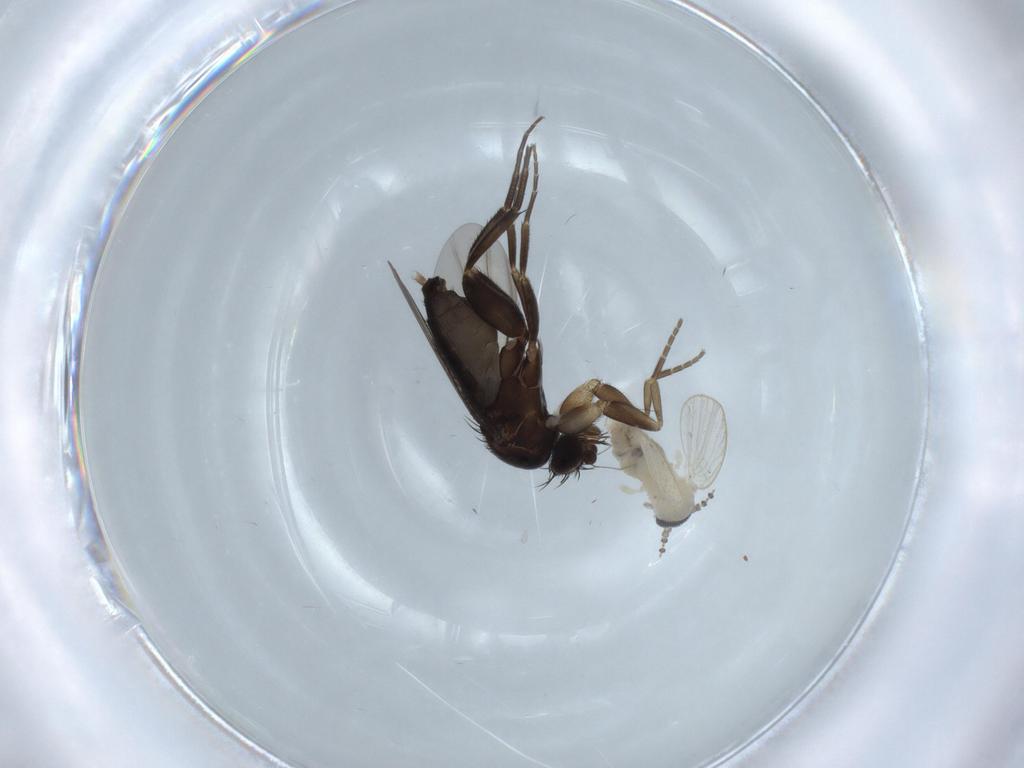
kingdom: Animalia
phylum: Arthropoda
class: Insecta
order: Diptera
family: Phoridae
